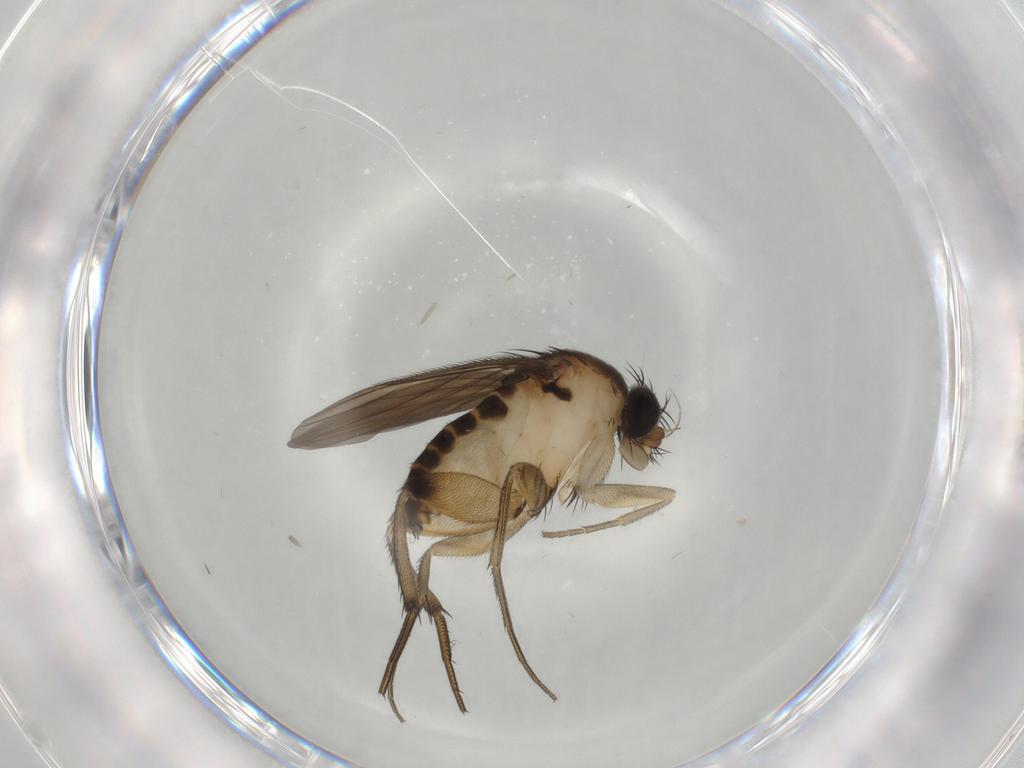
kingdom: Animalia
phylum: Arthropoda
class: Insecta
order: Diptera
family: Phoridae
